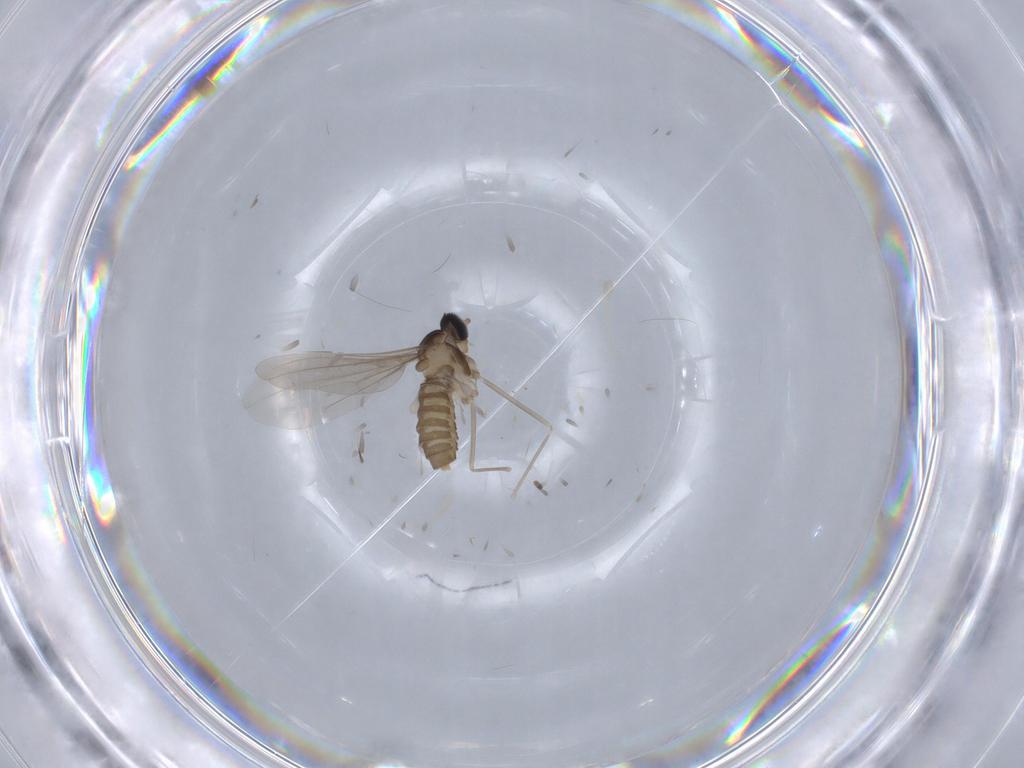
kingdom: Animalia
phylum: Arthropoda
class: Insecta
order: Diptera
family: Cecidomyiidae
